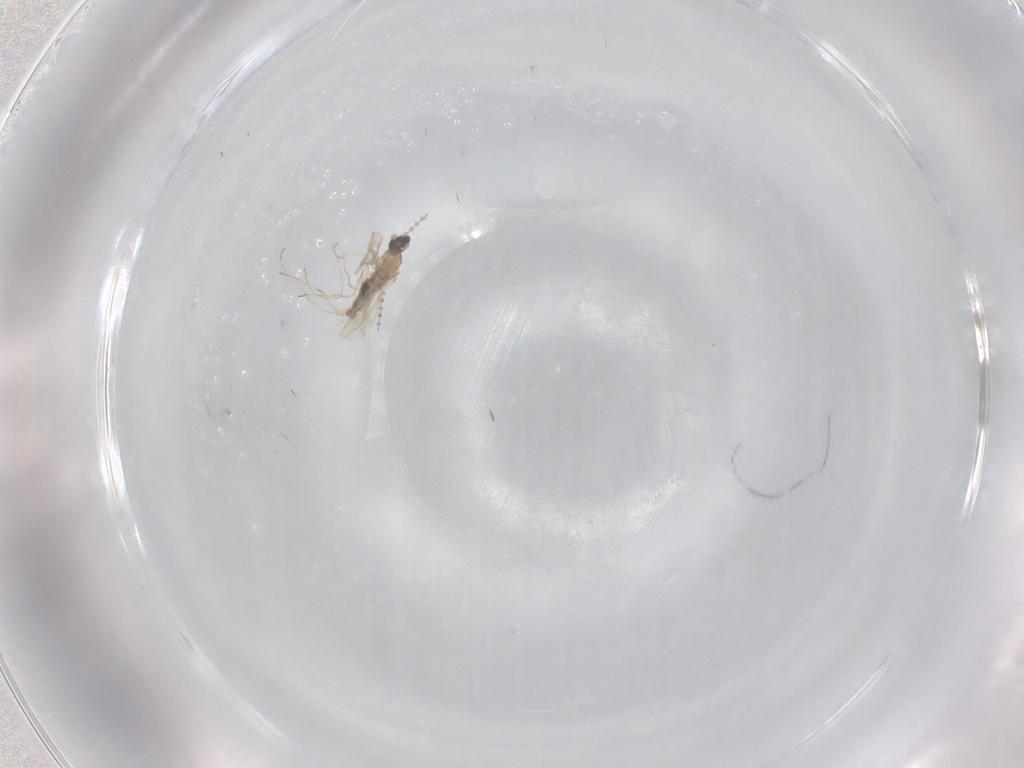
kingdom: Animalia
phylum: Arthropoda
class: Insecta
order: Diptera
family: Cecidomyiidae
